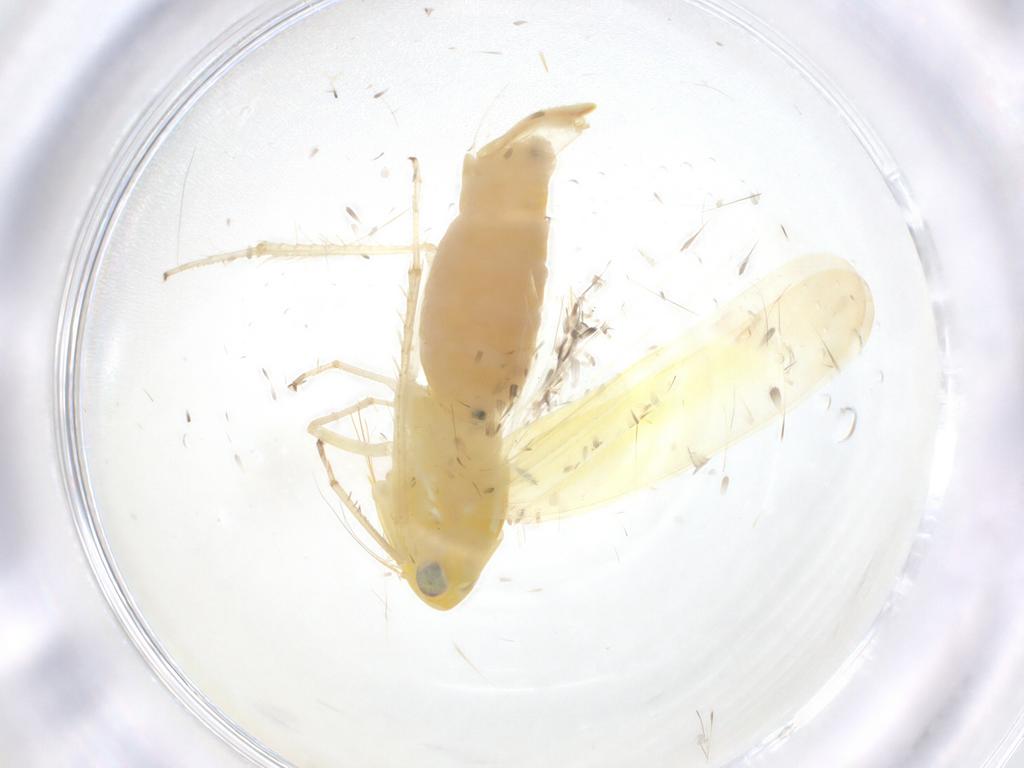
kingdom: Animalia
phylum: Arthropoda
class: Insecta
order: Hemiptera
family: Cicadellidae
